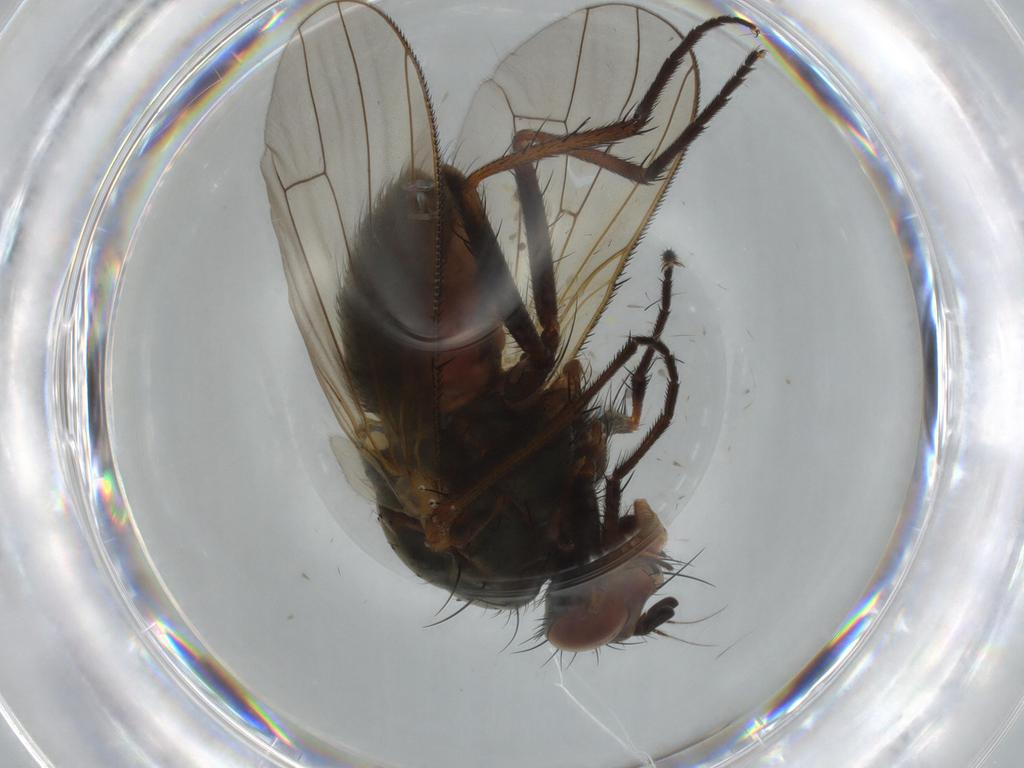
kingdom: Animalia
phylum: Arthropoda
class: Insecta
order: Diptera
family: Anthomyiidae
